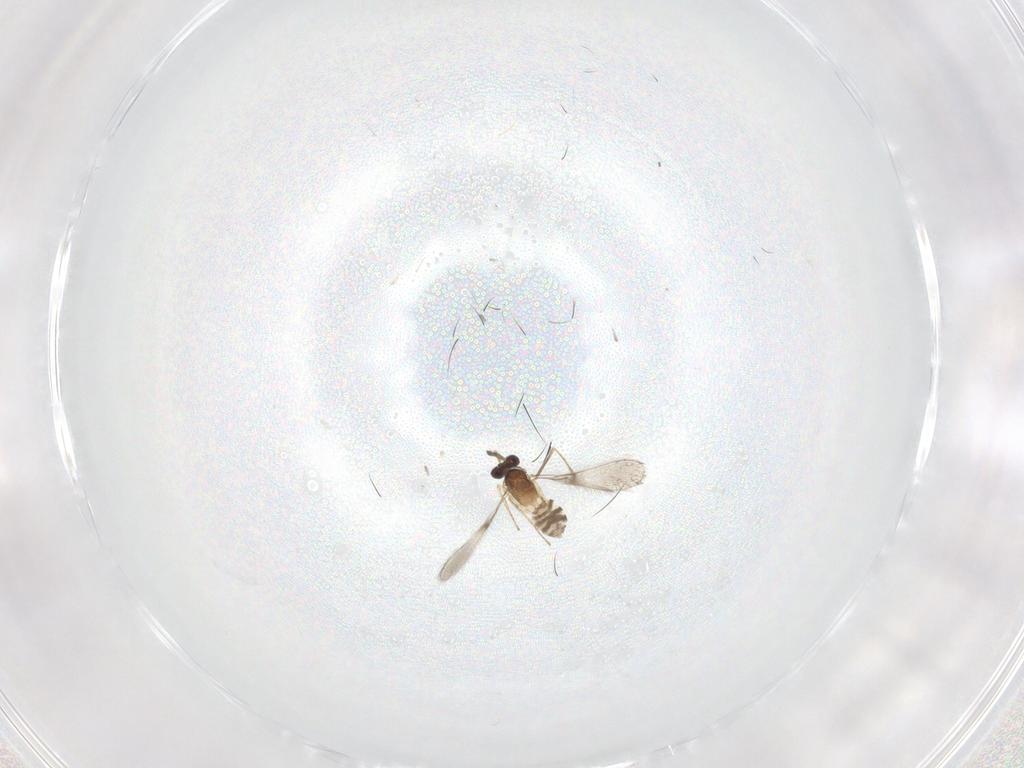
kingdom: Animalia
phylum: Arthropoda
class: Insecta
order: Diptera
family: Ceratopogonidae
